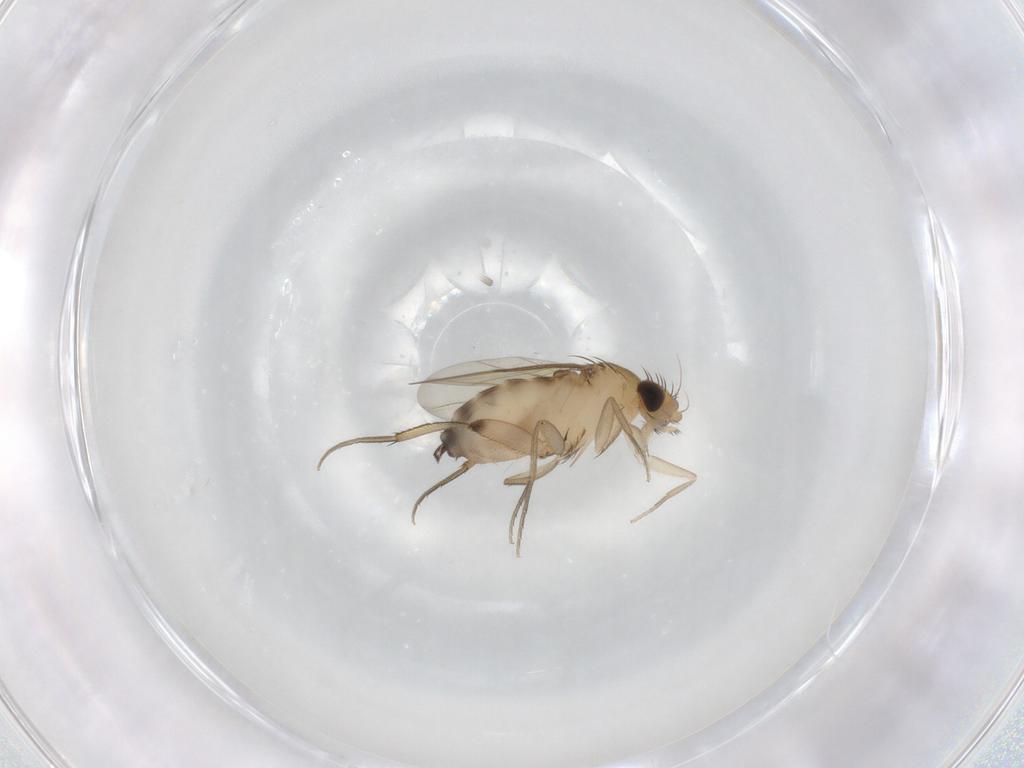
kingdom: Animalia
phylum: Arthropoda
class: Insecta
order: Diptera
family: Phoridae
